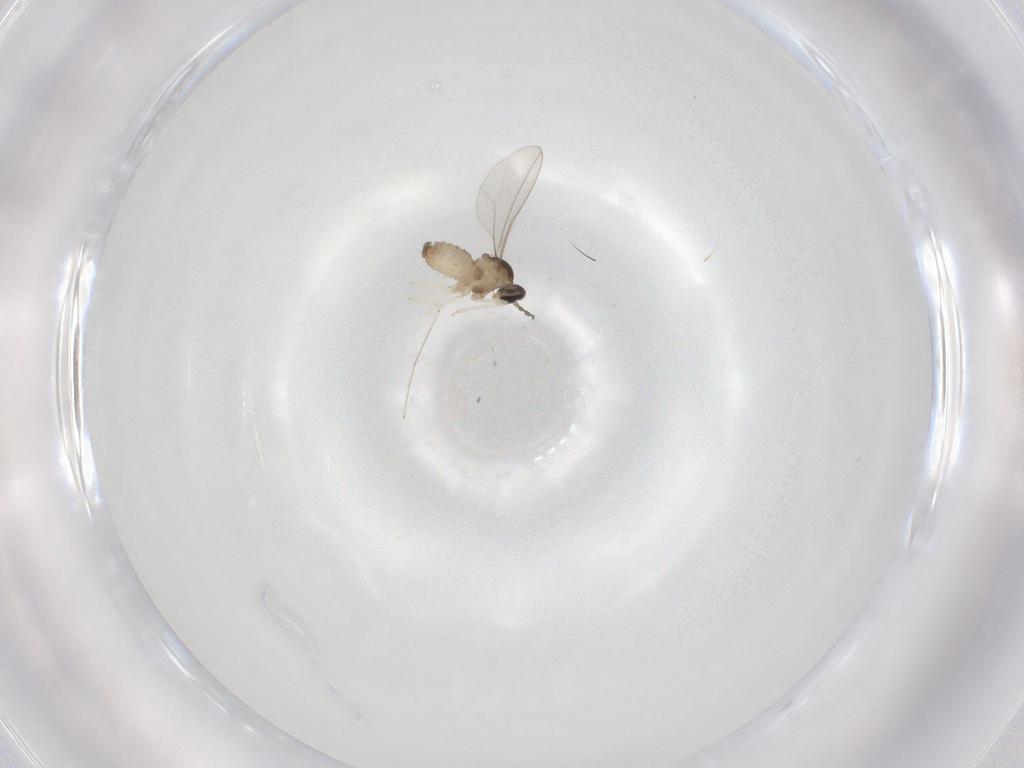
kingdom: Animalia
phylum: Arthropoda
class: Insecta
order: Diptera
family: Cecidomyiidae
